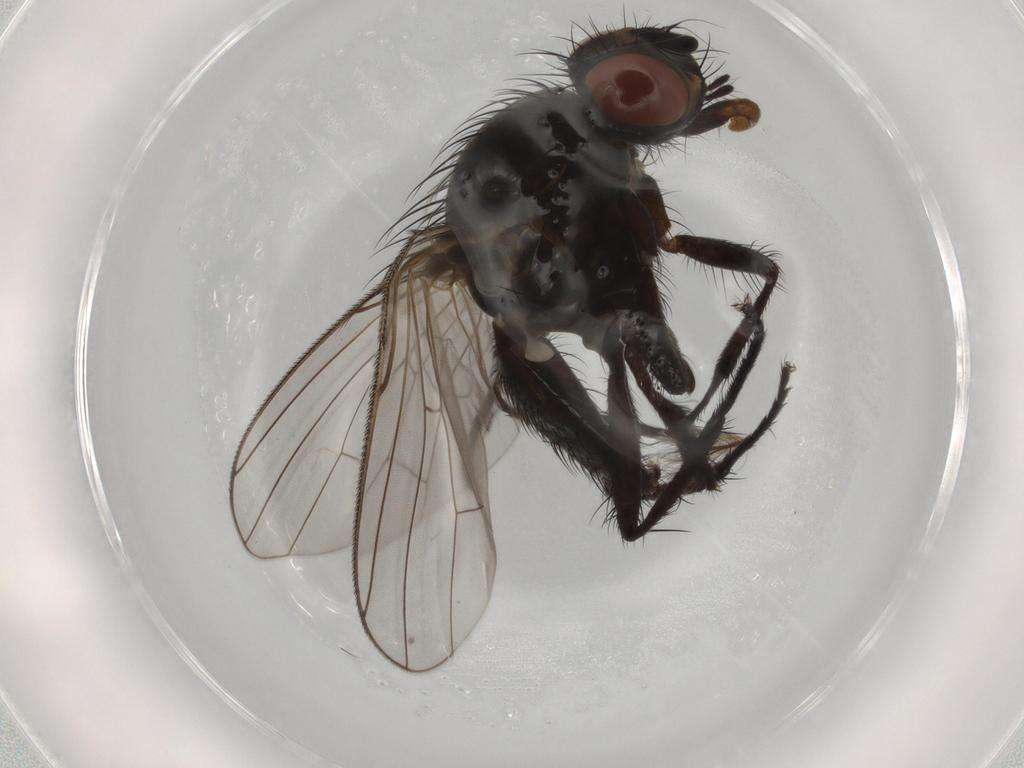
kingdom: Animalia
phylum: Arthropoda
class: Insecta
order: Diptera
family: Anthomyiidae
